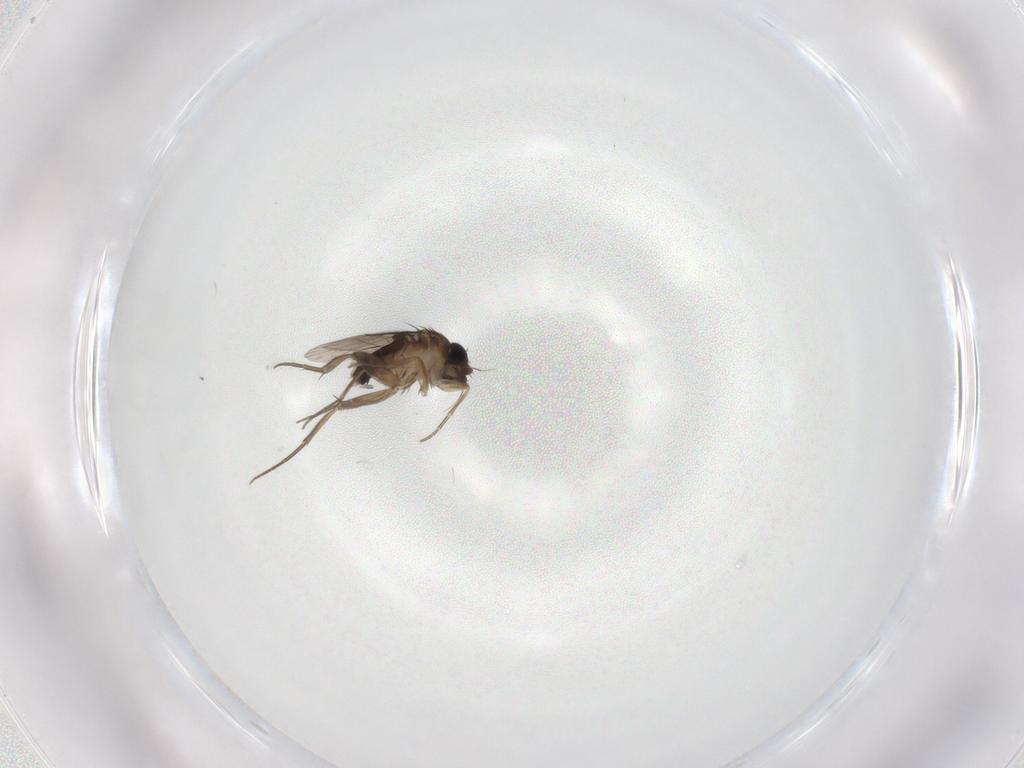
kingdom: Animalia
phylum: Arthropoda
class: Insecta
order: Diptera
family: Phoridae
